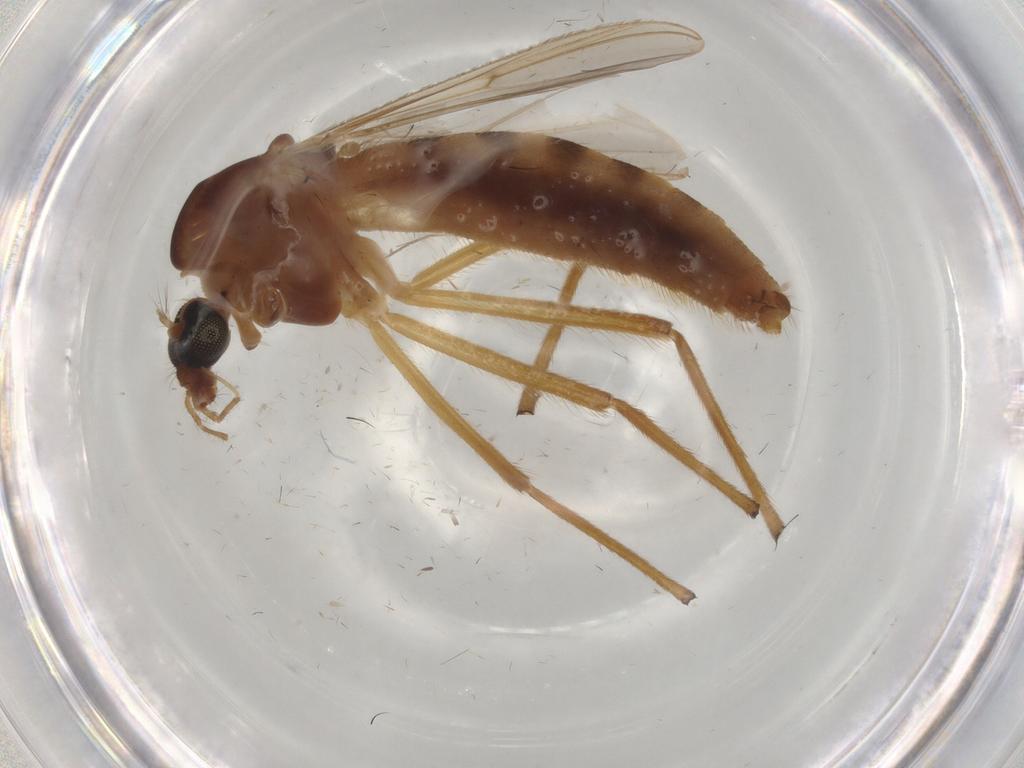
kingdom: Animalia
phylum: Arthropoda
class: Insecta
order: Diptera
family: Chironomidae
